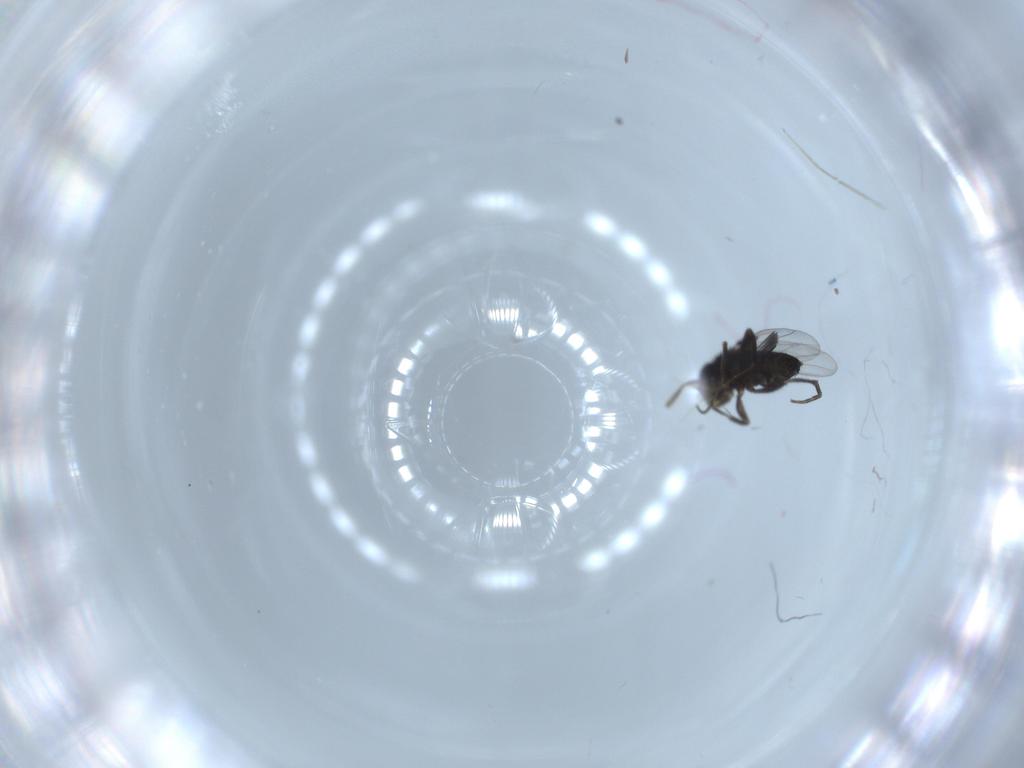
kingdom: Animalia
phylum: Arthropoda
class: Insecta
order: Diptera
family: Phoridae
